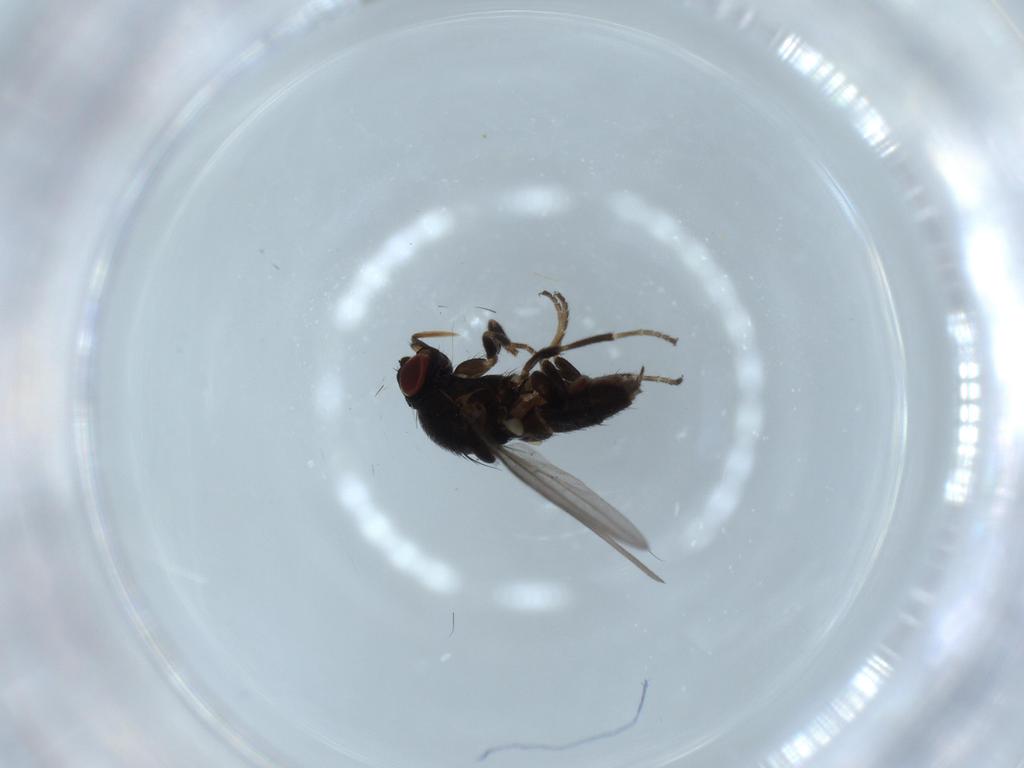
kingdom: Animalia
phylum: Arthropoda
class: Insecta
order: Diptera
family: Milichiidae
